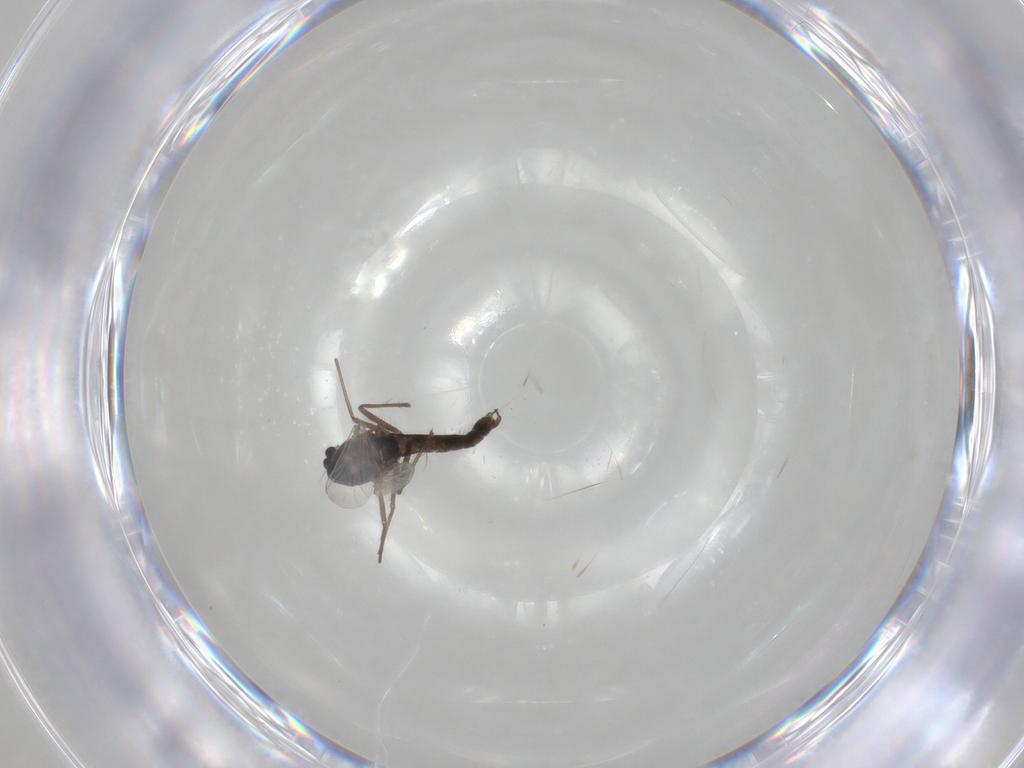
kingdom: Animalia
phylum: Arthropoda
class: Insecta
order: Diptera
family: Chironomidae
